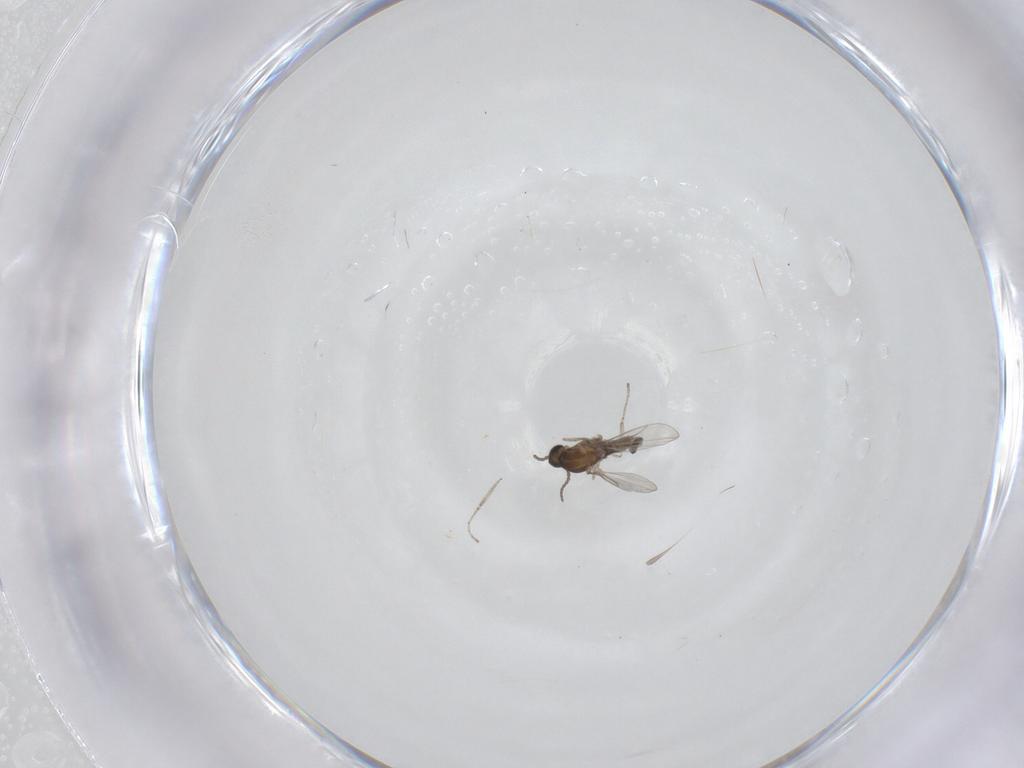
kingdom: Animalia
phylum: Arthropoda
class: Insecta
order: Diptera
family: Cecidomyiidae
